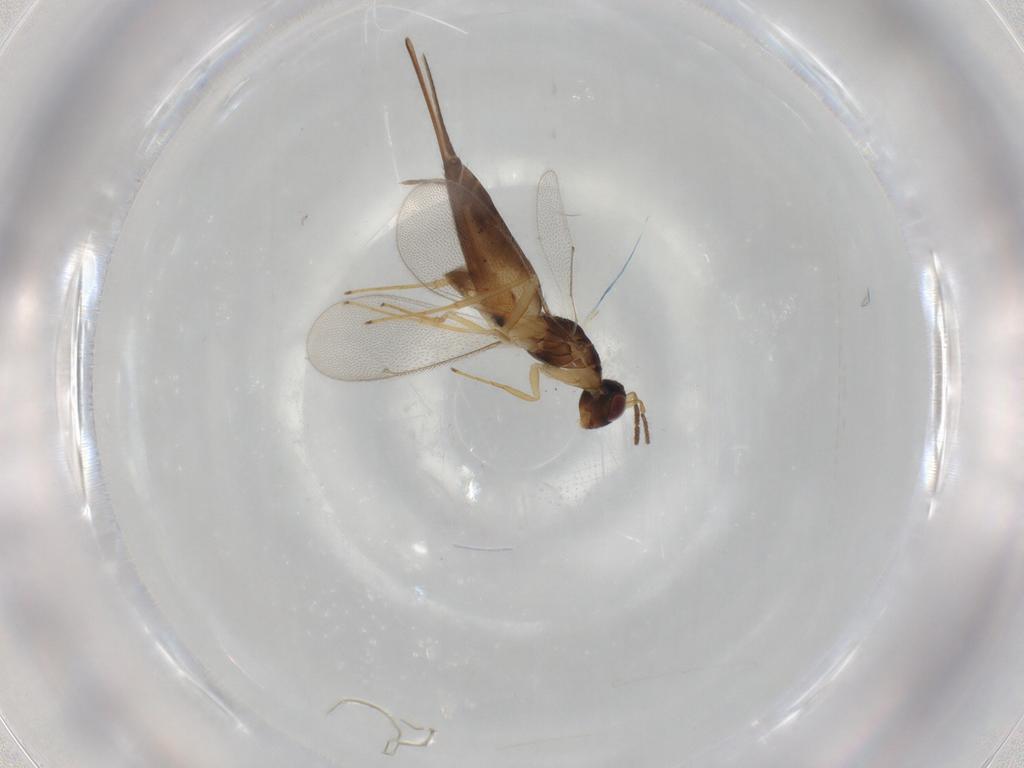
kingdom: Animalia
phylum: Arthropoda
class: Insecta
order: Hymenoptera
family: Eulophidae
